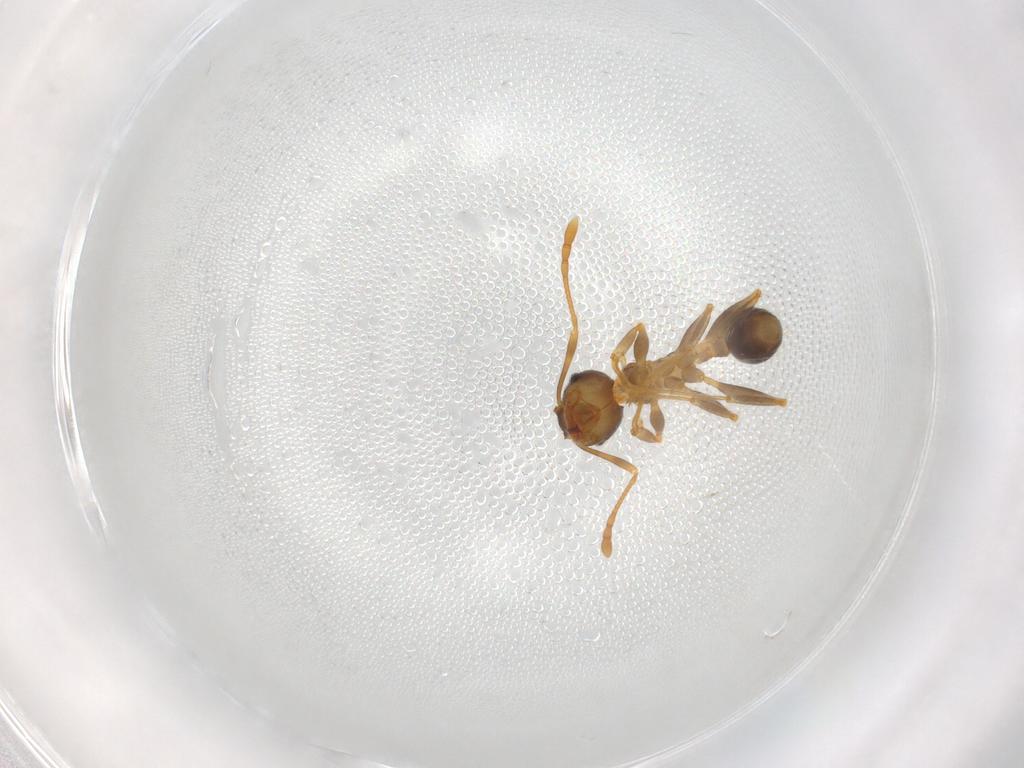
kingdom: Animalia
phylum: Arthropoda
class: Insecta
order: Hymenoptera
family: Formicidae
